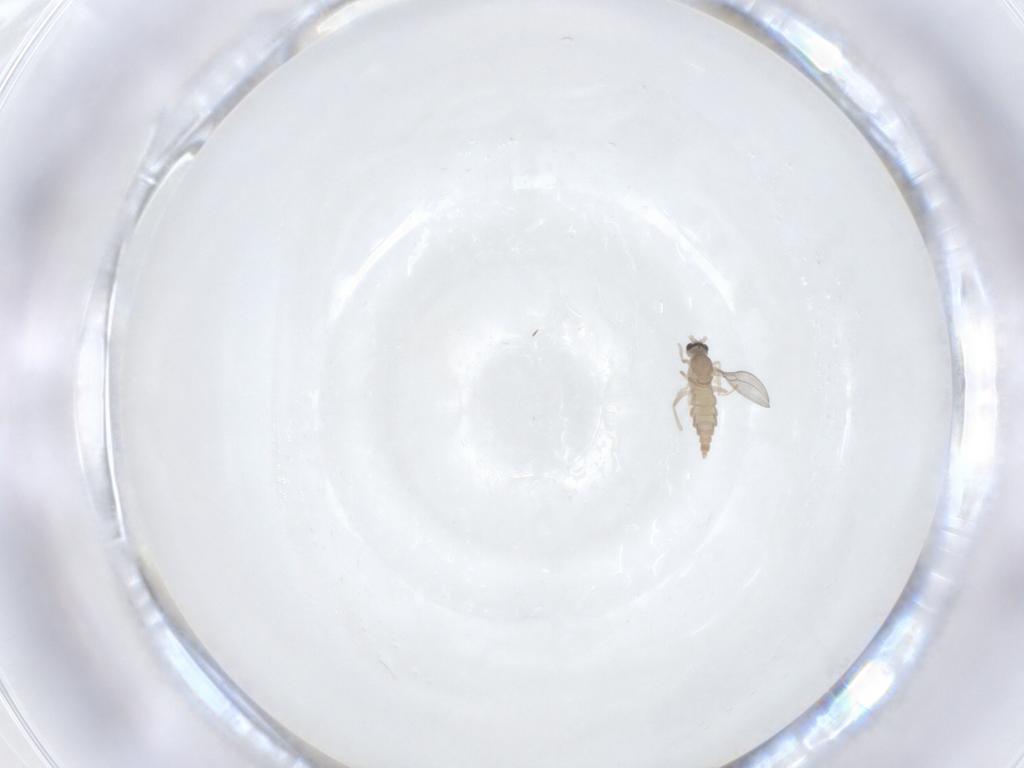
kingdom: Animalia
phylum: Arthropoda
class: Insecta
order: Diptera
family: Cecidomyiidae
